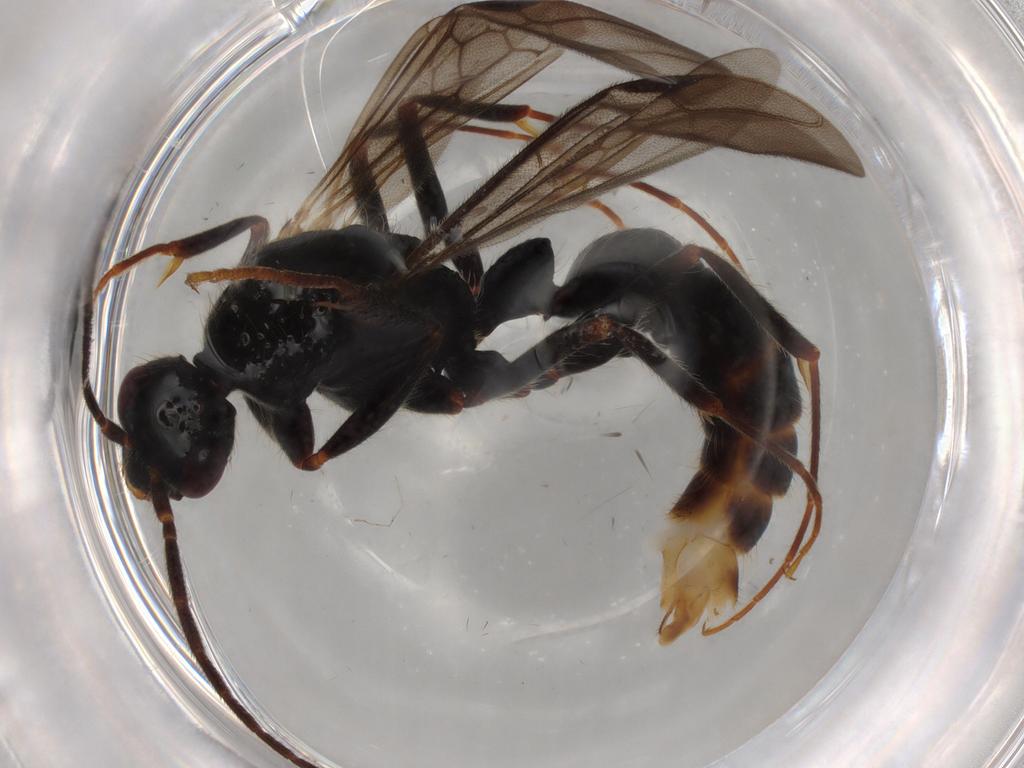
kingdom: Animalia
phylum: Arthropoda
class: Insecta
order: Hymenoptera
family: Formicidae
